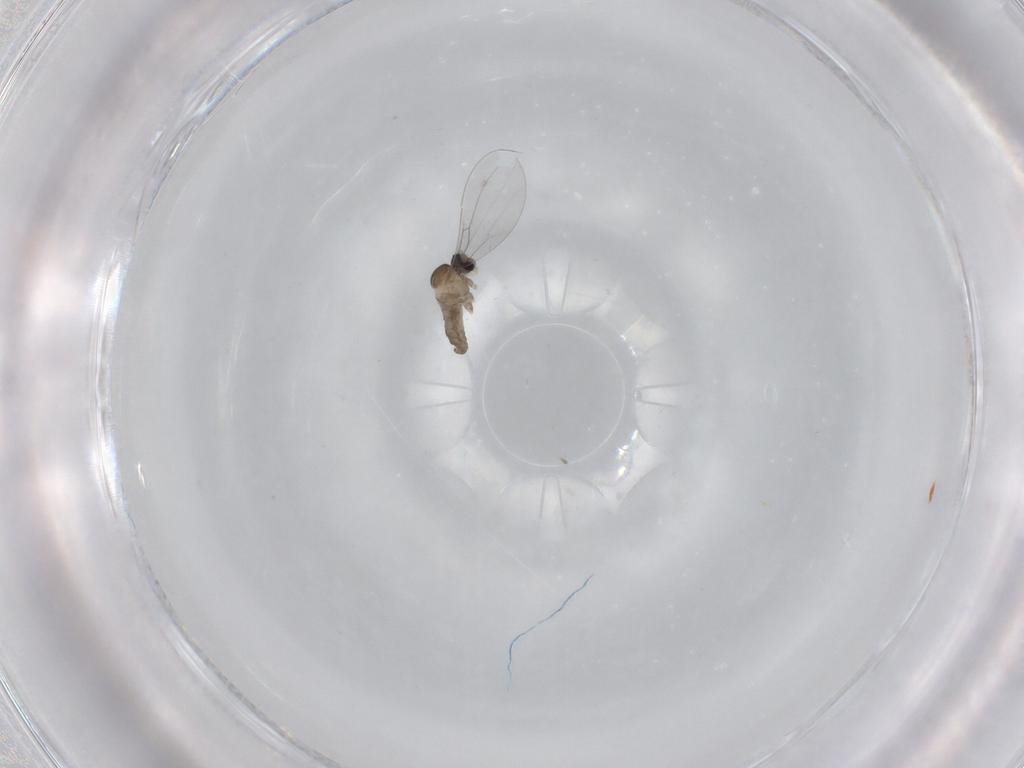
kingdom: Animalia
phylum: Arthropoda
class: Insecta
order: Diptera
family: Cecidomyiidae
